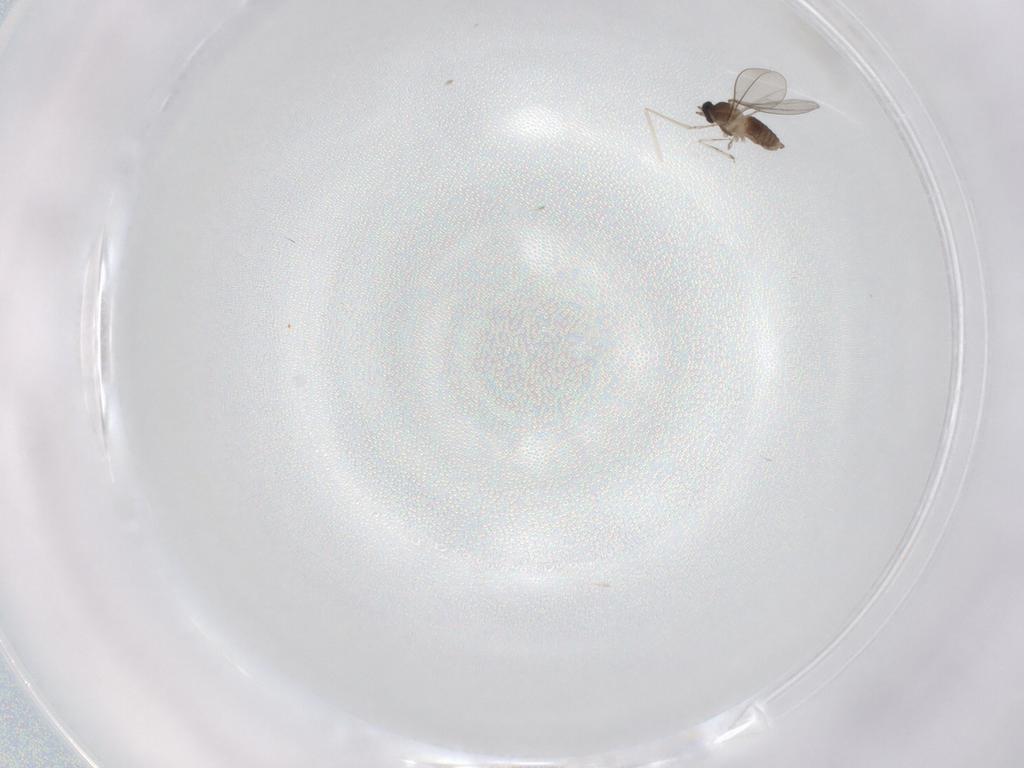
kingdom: Animalia
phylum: Arthropoda
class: Insecta
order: Diptera
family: Cecidomyiidae
